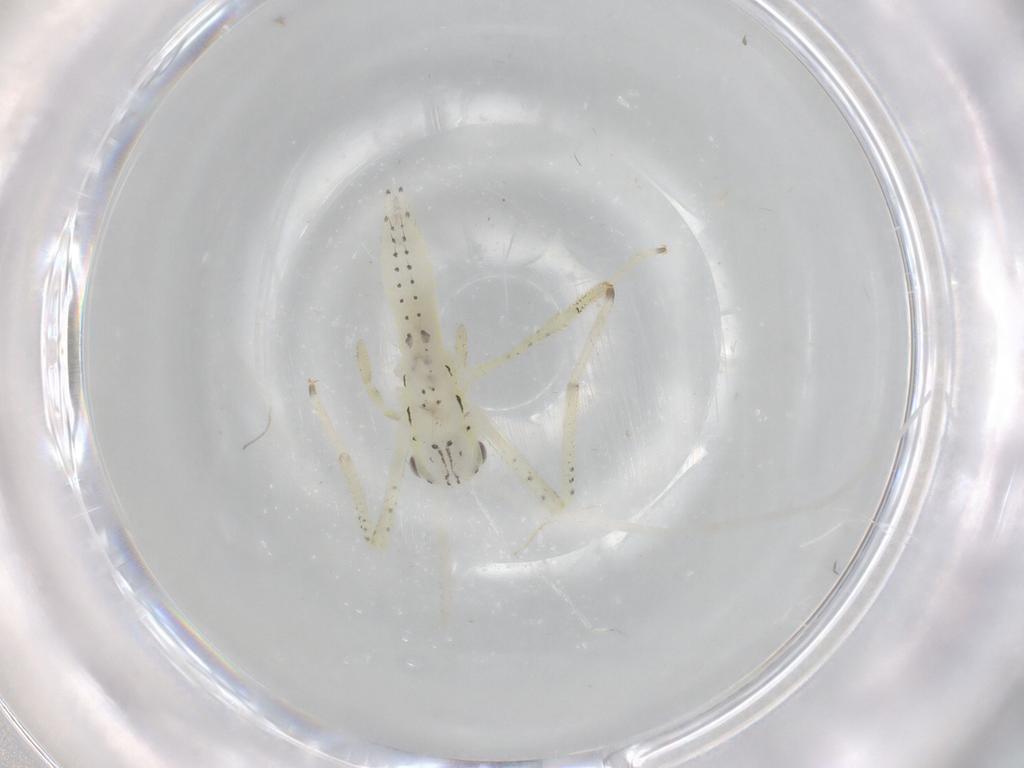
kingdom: Animalia
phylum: Arthropoda
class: Insecta
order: Orthoptera
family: Oecanthidae
